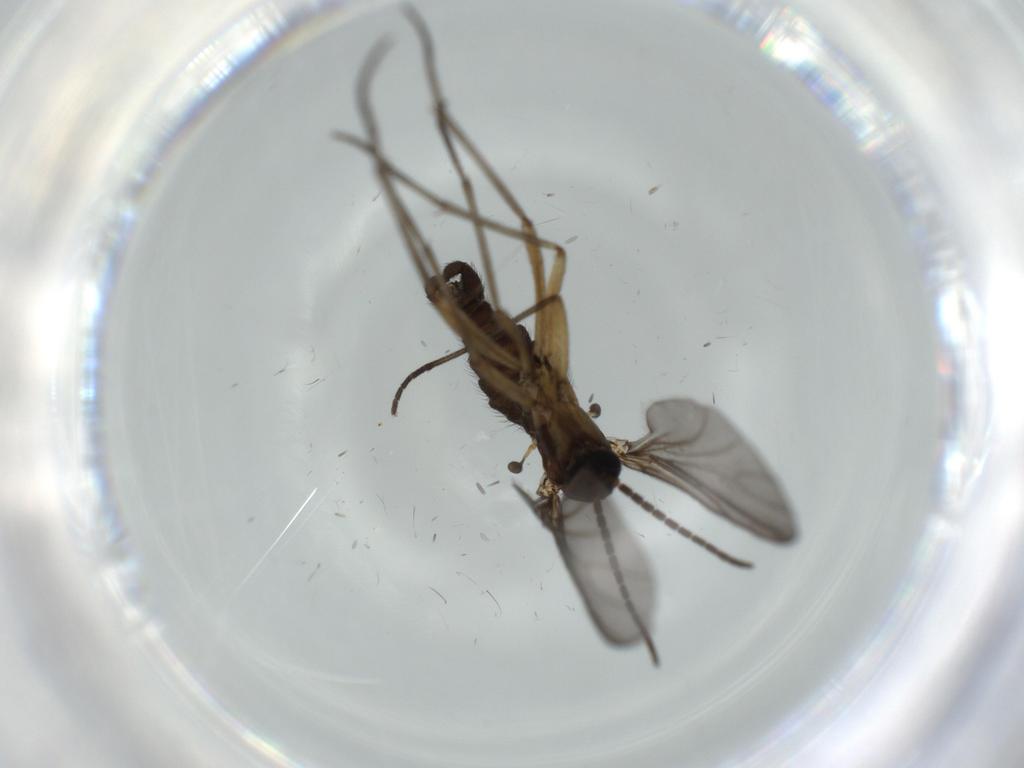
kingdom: Animalia
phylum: Arthropoda
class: Insecta
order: Diptera
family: Sciaridae
